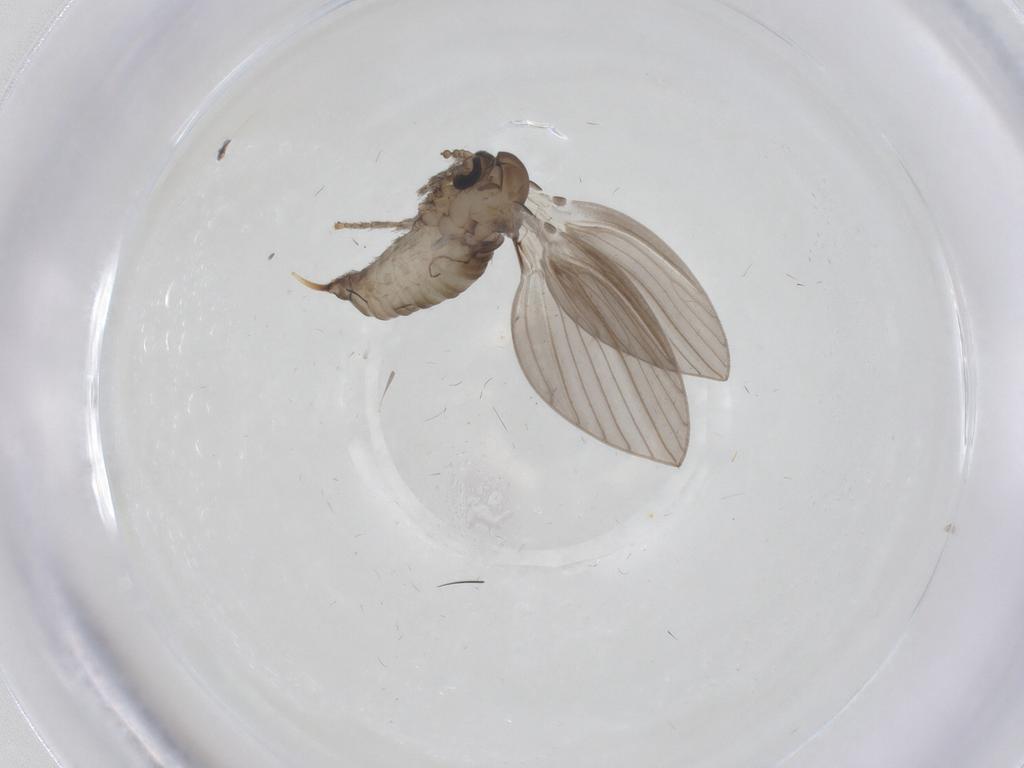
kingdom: Animalia
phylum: Arthropoda
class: Insecta
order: Diptera
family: Psychodidae
